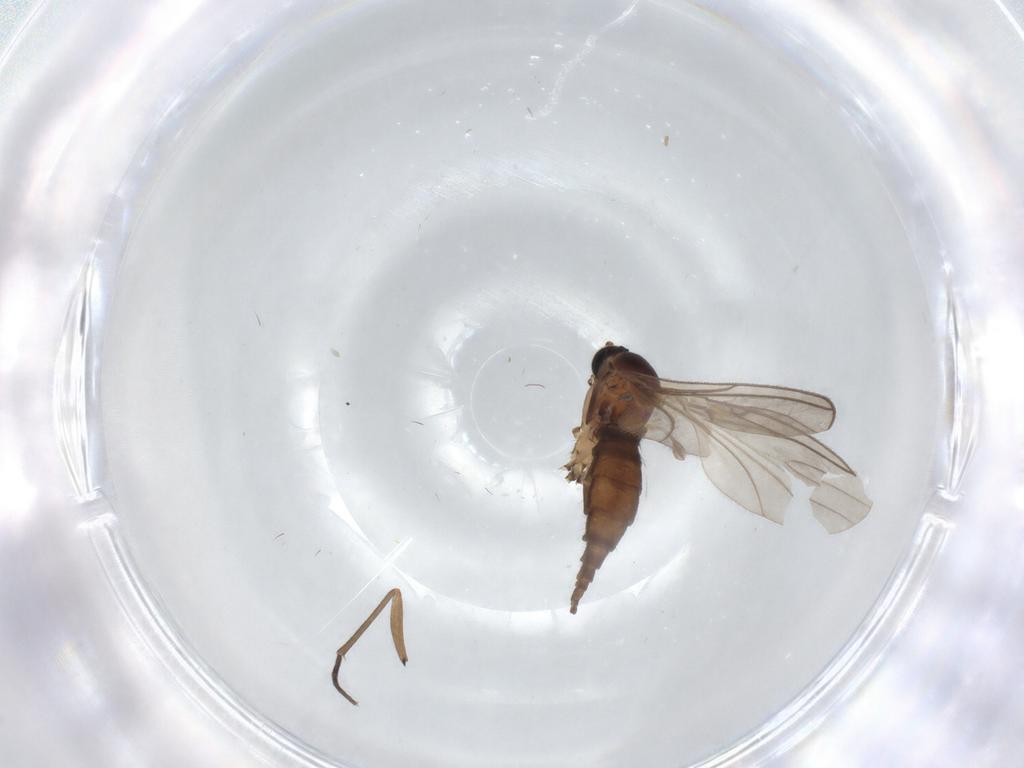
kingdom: Animalia
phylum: Arthropoda
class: Insecta
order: Diptera
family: Sciaridae
